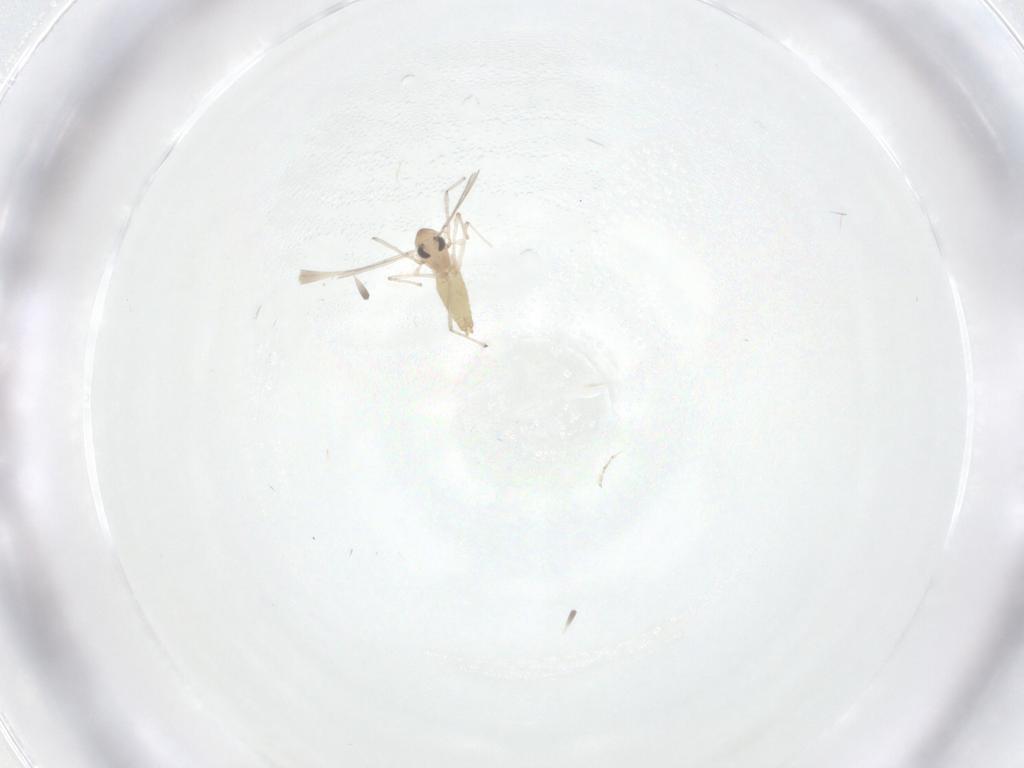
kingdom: Animalia
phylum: Arthropoda
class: Insecta
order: Diptera
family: Cecidomyiidae
